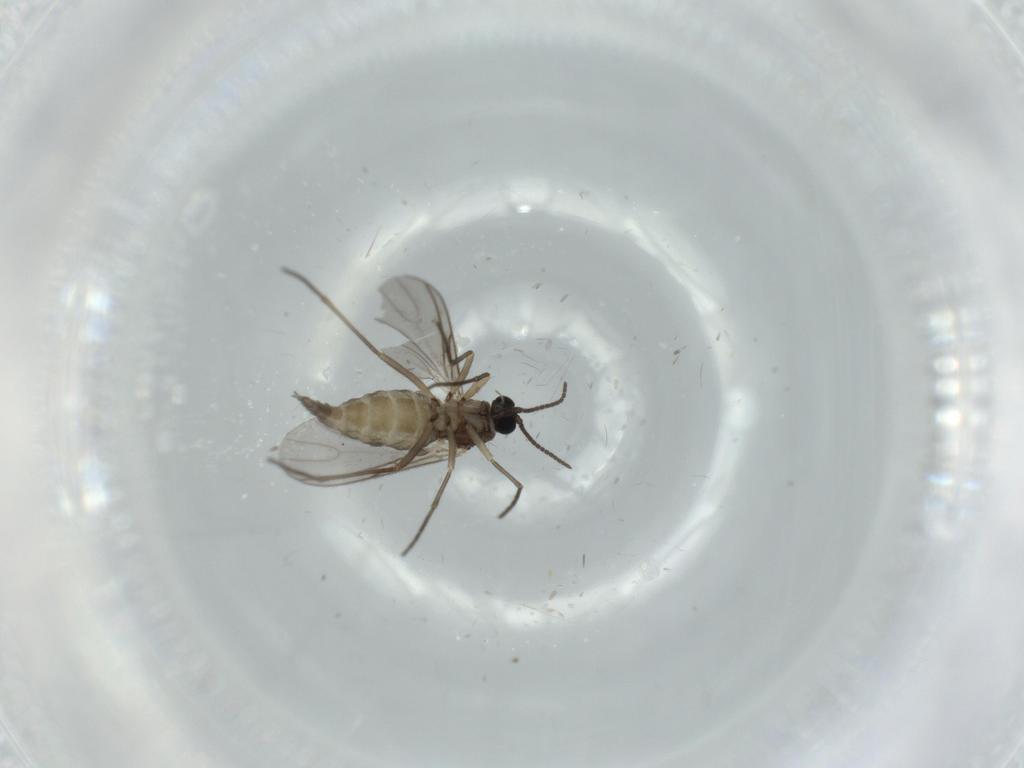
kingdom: Animalia
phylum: Arthropoda
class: Insecta
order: Diptera
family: Sciaridae
